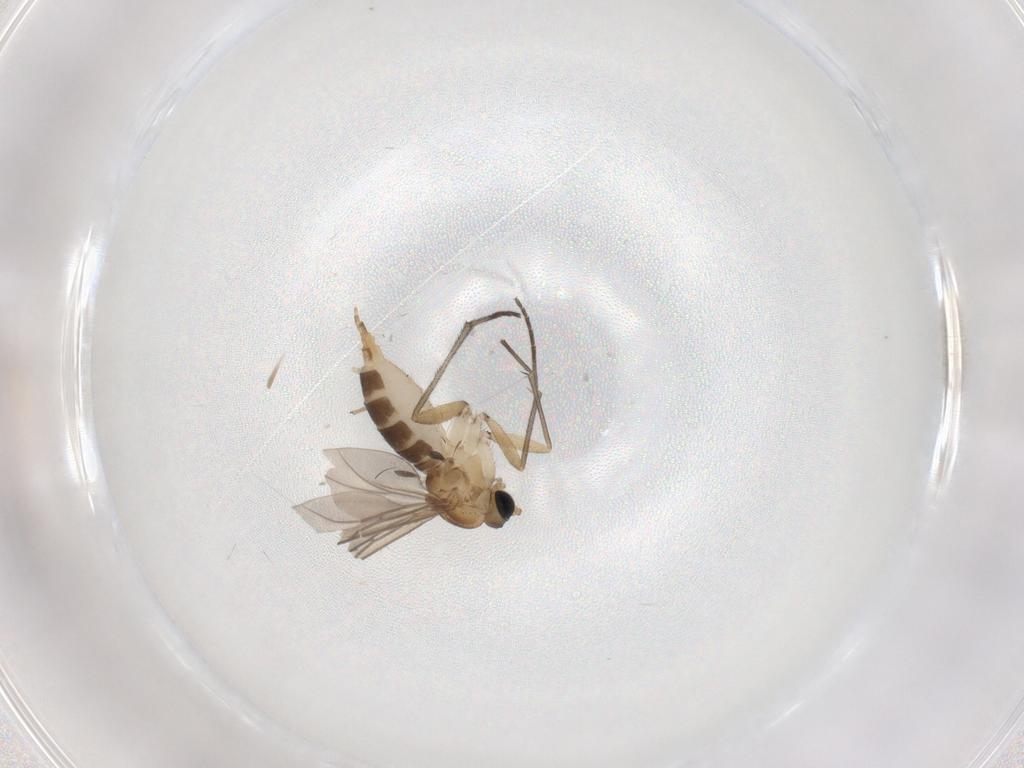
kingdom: Animalia
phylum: Arthropoda
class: Insecta
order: Diptera
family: Sciaridae
